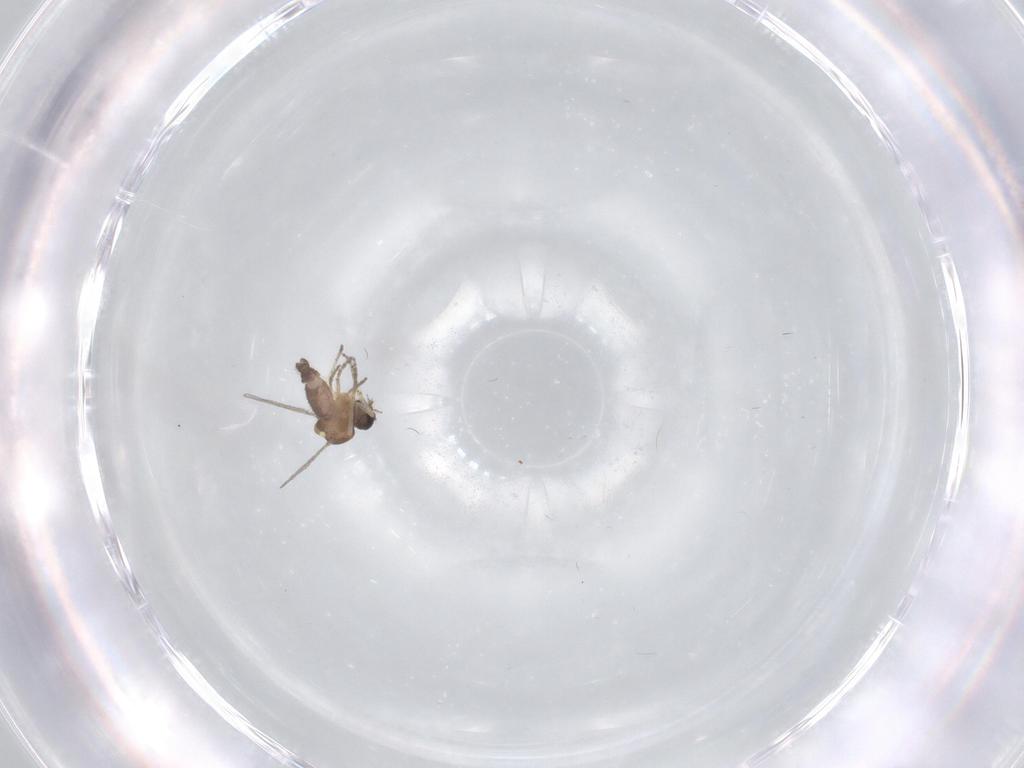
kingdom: Animalia
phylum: Arthropoda
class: Insecta
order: Diptera
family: Ceratopogonidae
